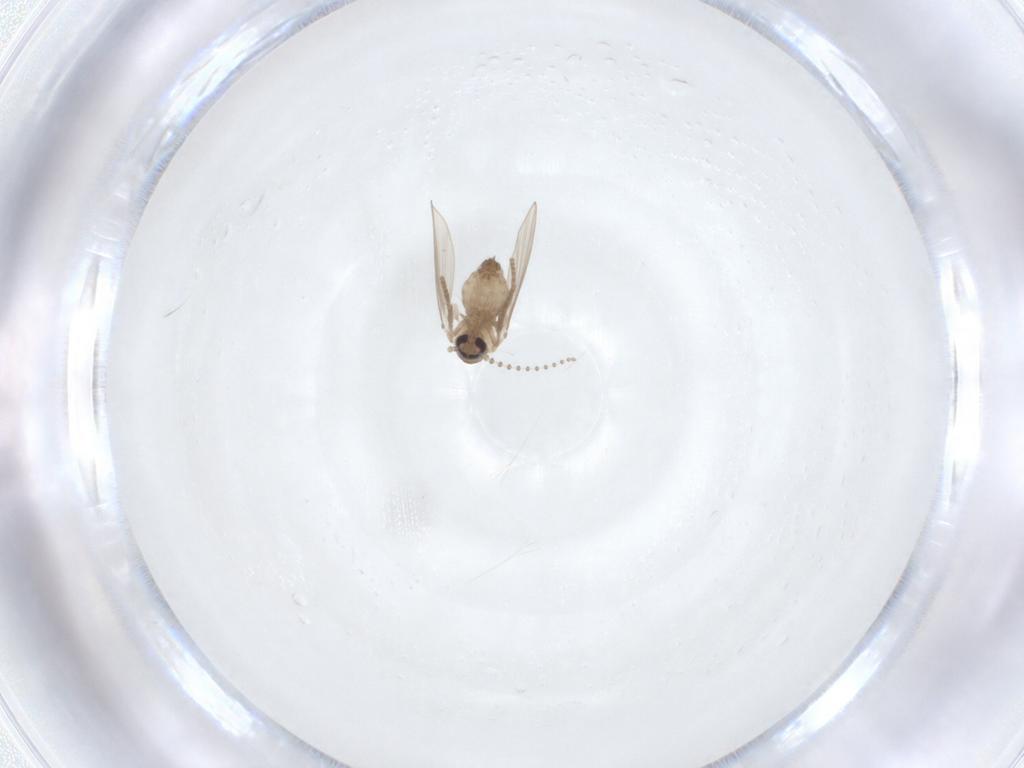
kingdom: Animalia
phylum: Arthropoda
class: Insecta
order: Diptera
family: Psychodidae
